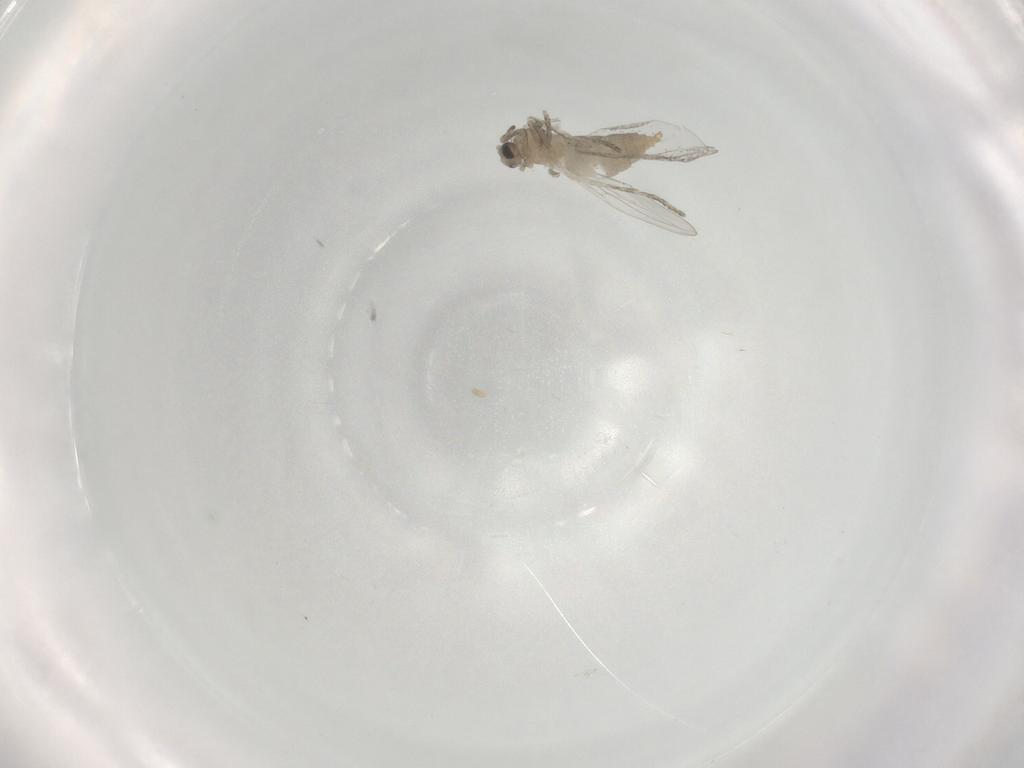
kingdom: Animalia
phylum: Arthropoda
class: Insecta
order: Diptera
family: Cecidomyiidae
